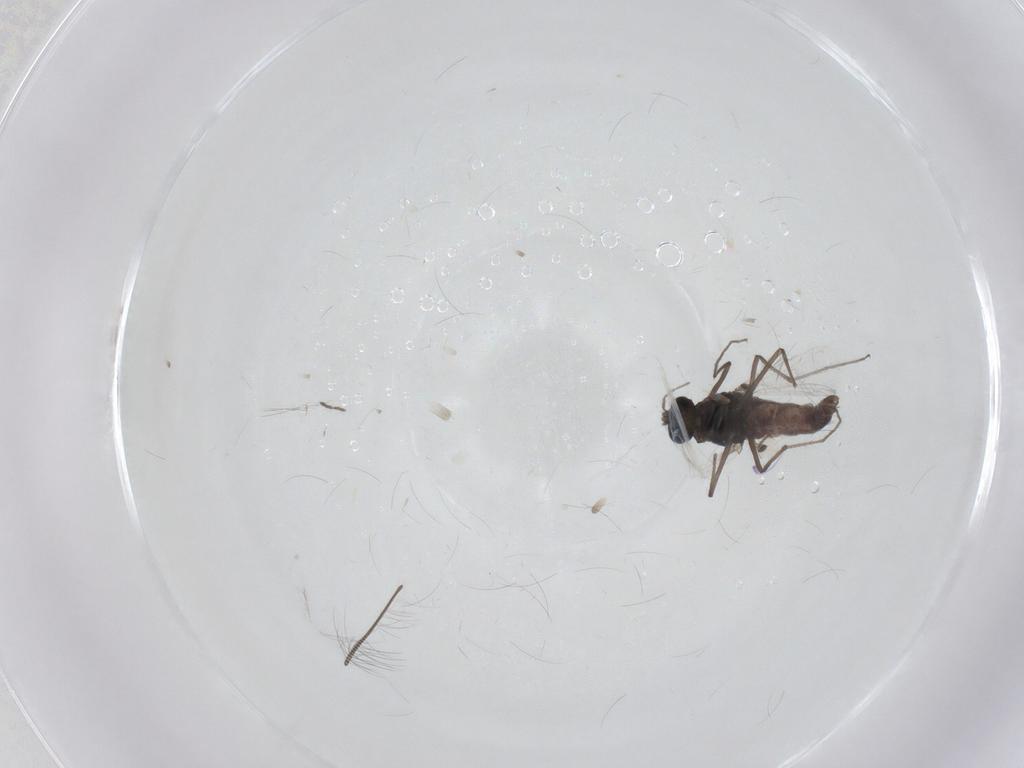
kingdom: Animalia
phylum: Arthropoda
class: Insecta
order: Diptera
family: Chironomidae
